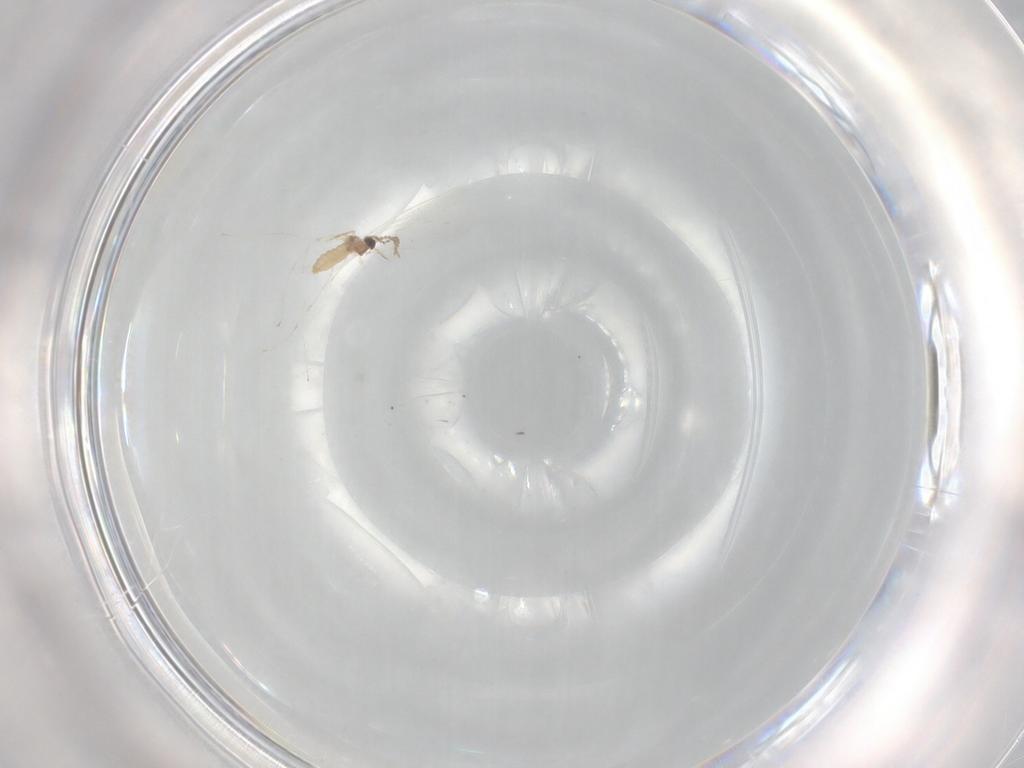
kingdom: Animalia
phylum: Arthropoda
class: Insecta
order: Diptera
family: Cecidomyiidae
